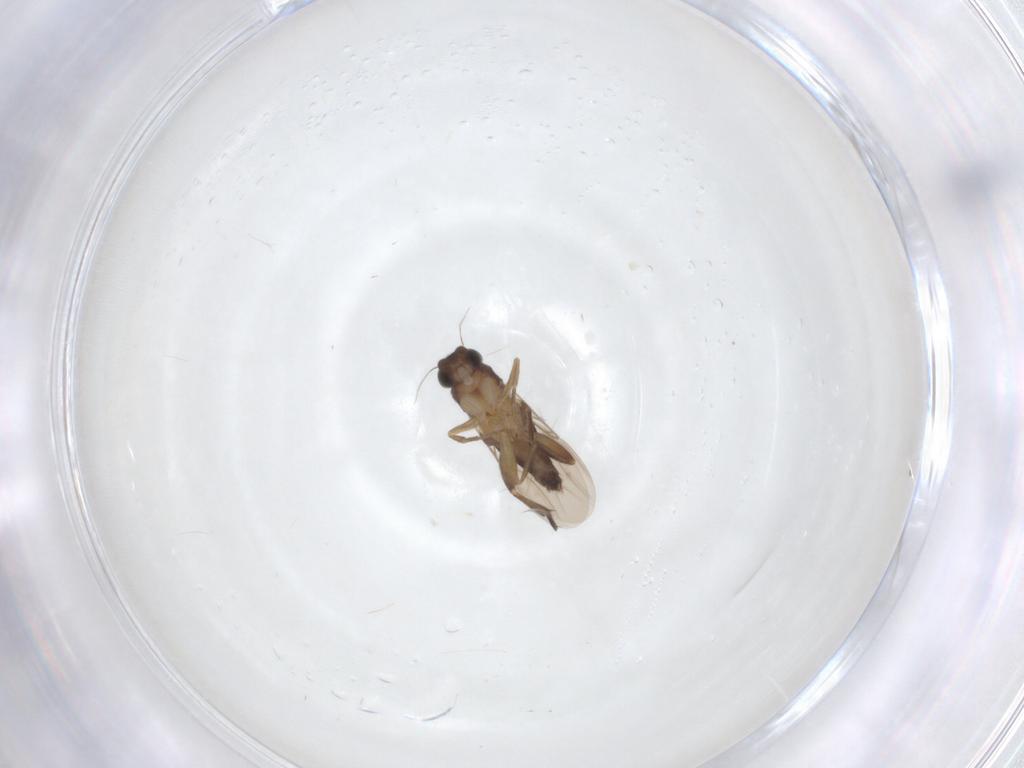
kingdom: Animalia
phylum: Arthropoda
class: Insecta
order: Diptera
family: Phoridae
